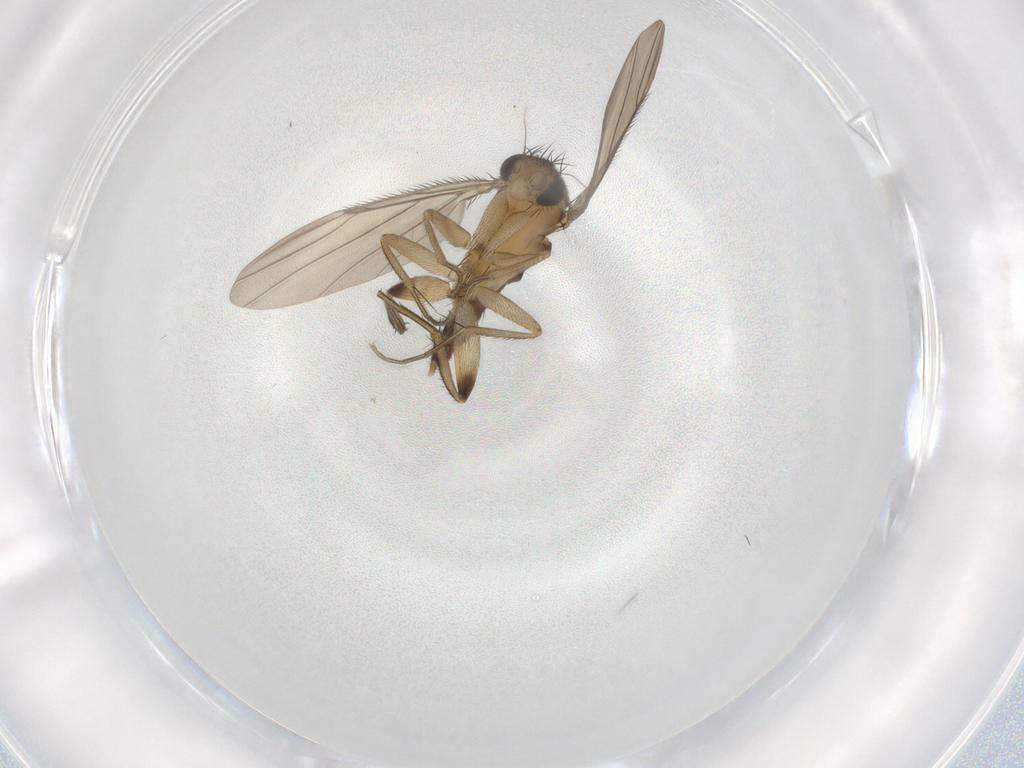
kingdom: Animalia
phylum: Arthropoda
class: Insecta
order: Diptera
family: Phoridae
